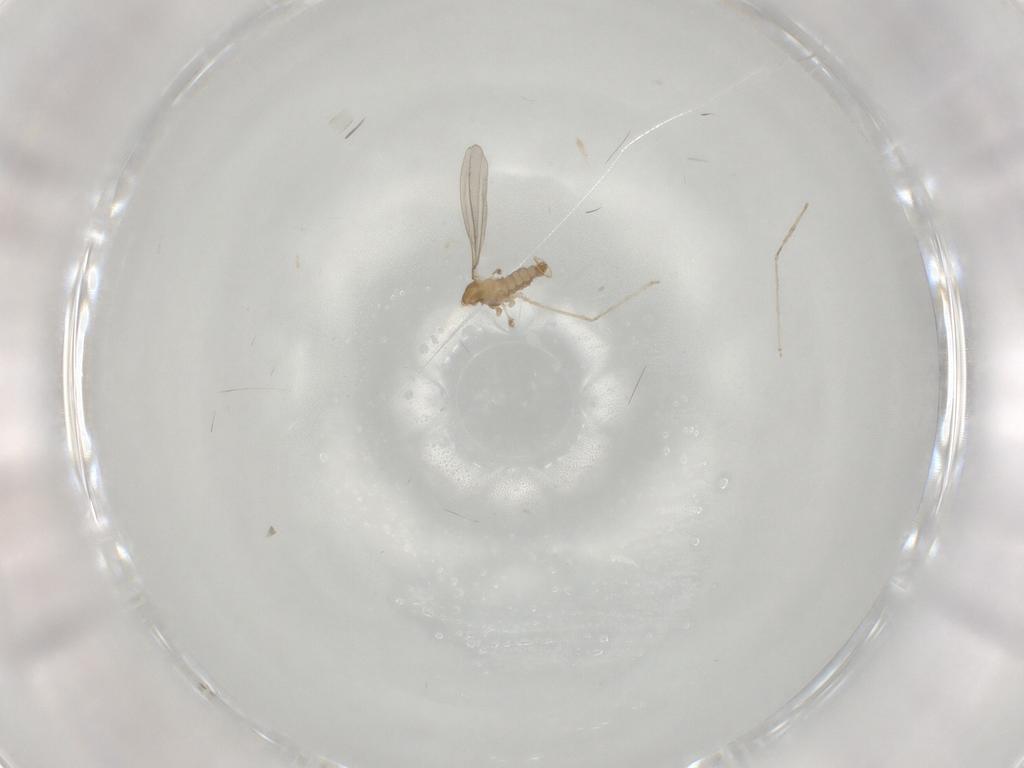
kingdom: Animalia
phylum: Arthropoda
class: Insecta
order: Diptera
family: Cecidomyiidae
